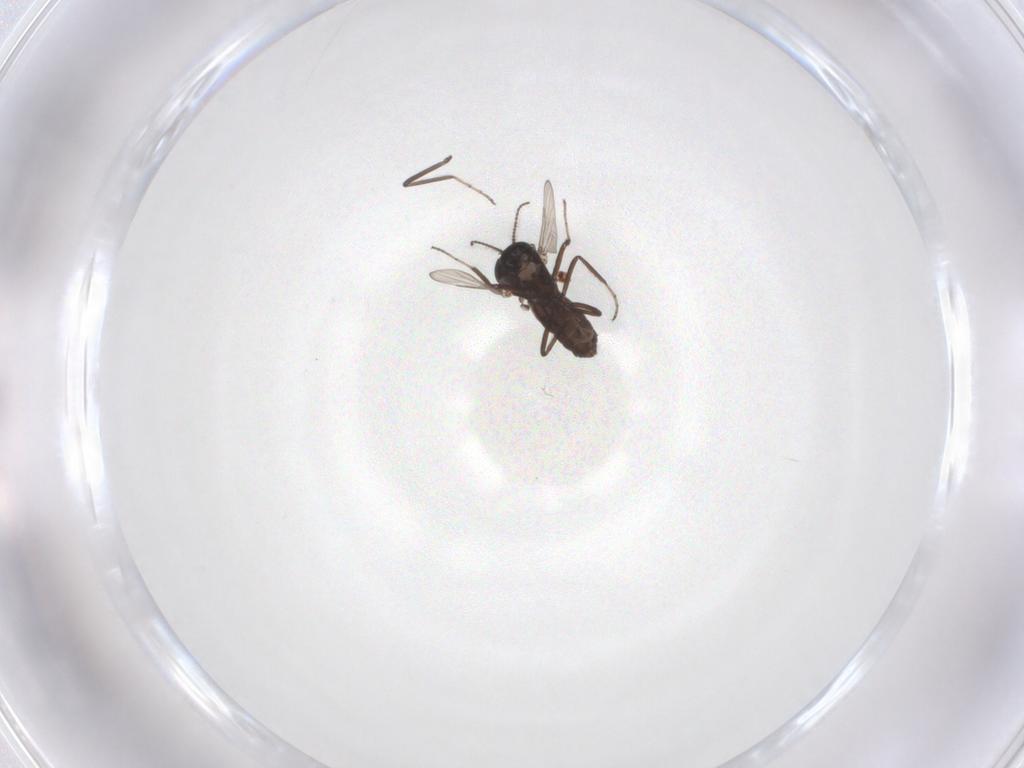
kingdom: Animalia
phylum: Arthropoda
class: Insecta
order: Diptera
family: Ceratopogonidae
